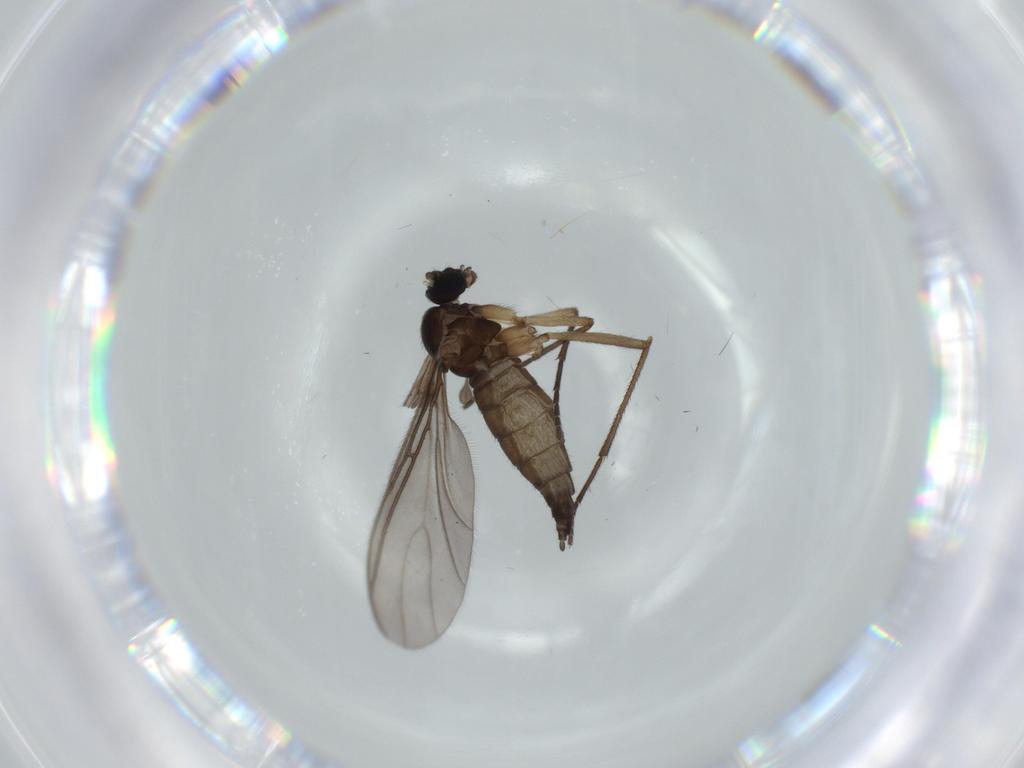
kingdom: Animalia
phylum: Arthropoda
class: Insecta
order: Diptera
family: Sciaridae
